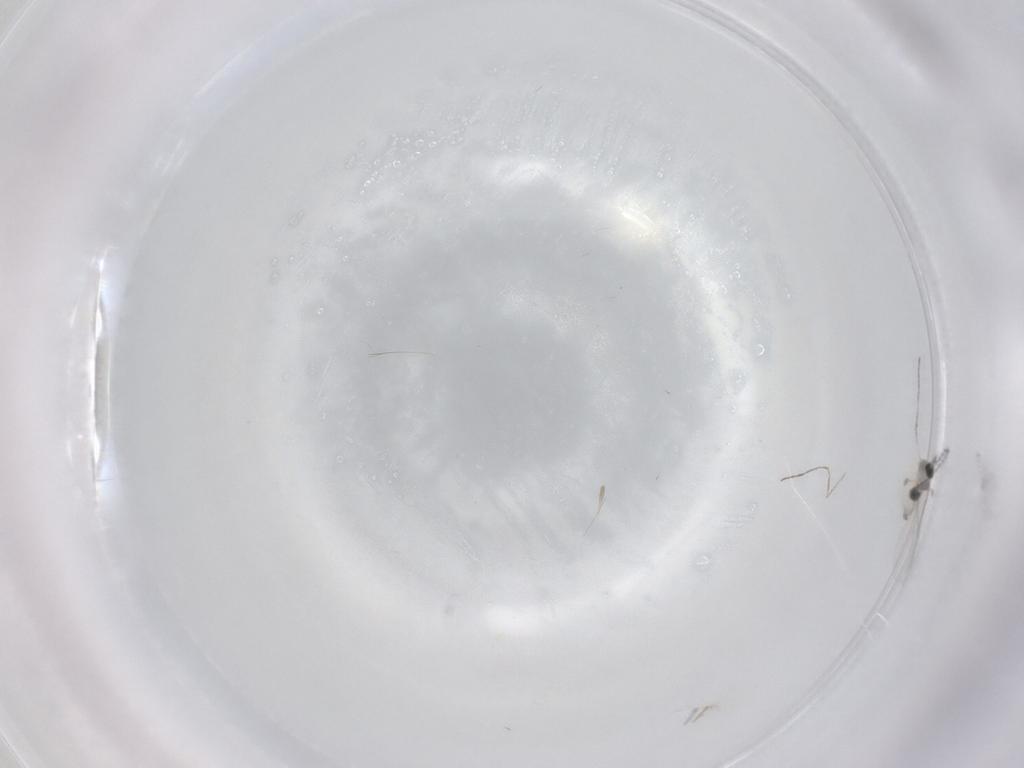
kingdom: Animalia
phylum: Arthropoda
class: Insecta
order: Diptera
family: Cecidomyiidae
